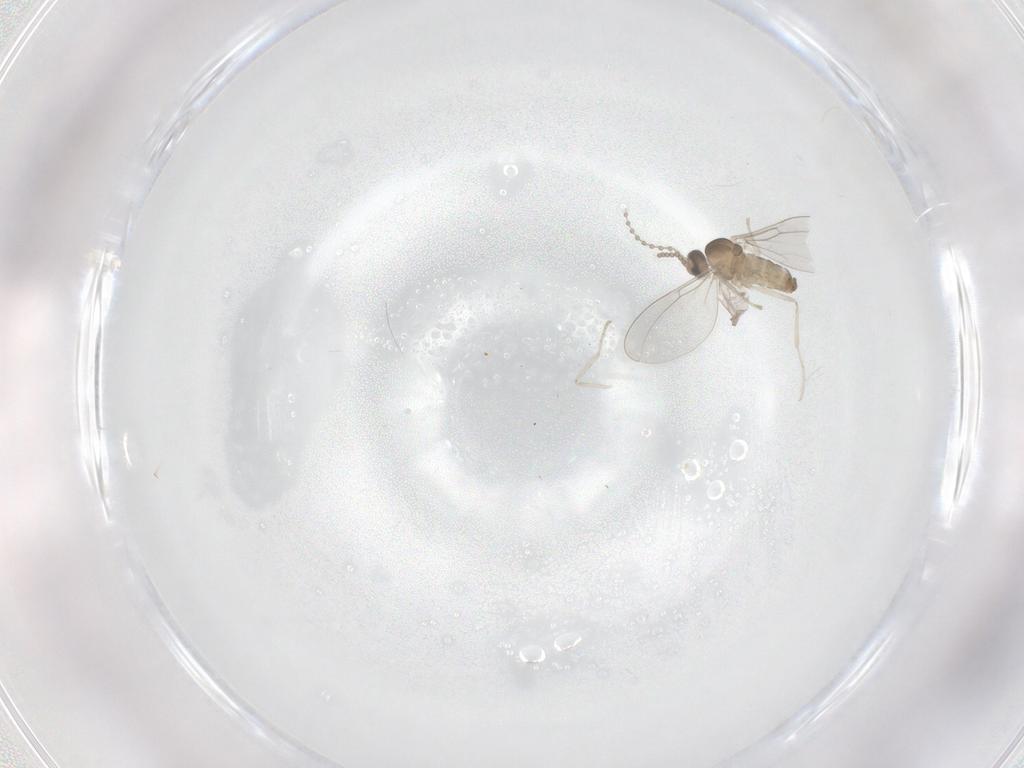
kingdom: Animalia
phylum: Arthropoda
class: Insecta
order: Diptera
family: Cecidomyiidae
